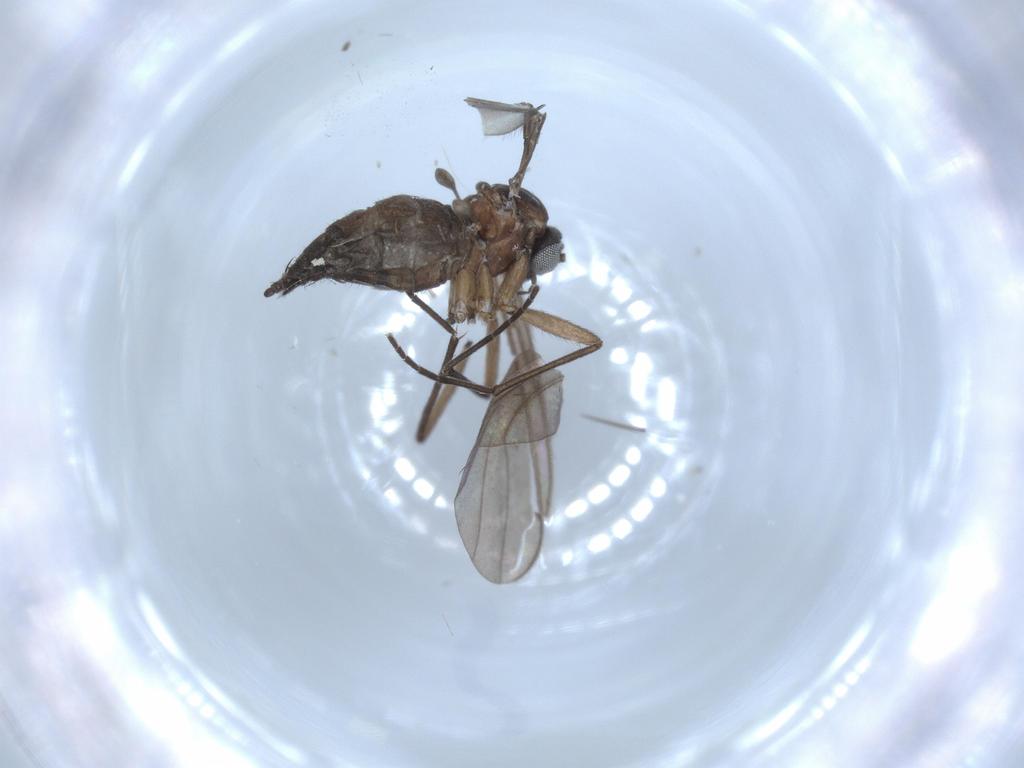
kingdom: Animalia
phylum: Arthropoda
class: Insecta
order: Diptera
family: Sciaridae
